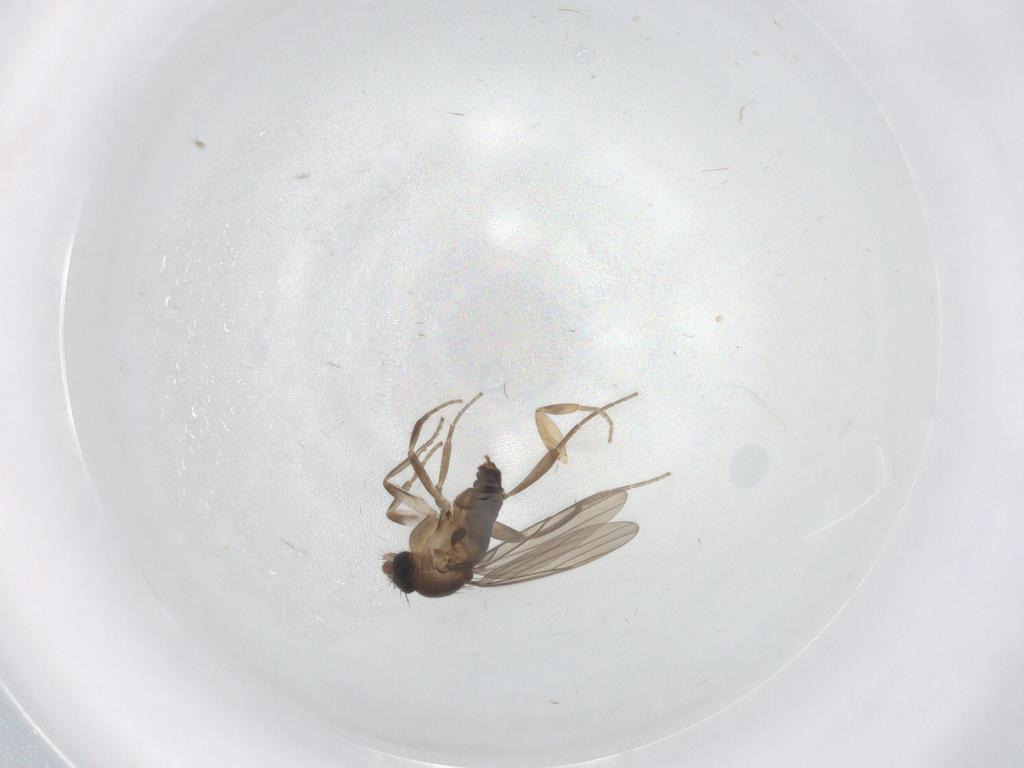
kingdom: Animalia
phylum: Arthropoda
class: Insecta
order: Diptera
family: Phoridae
